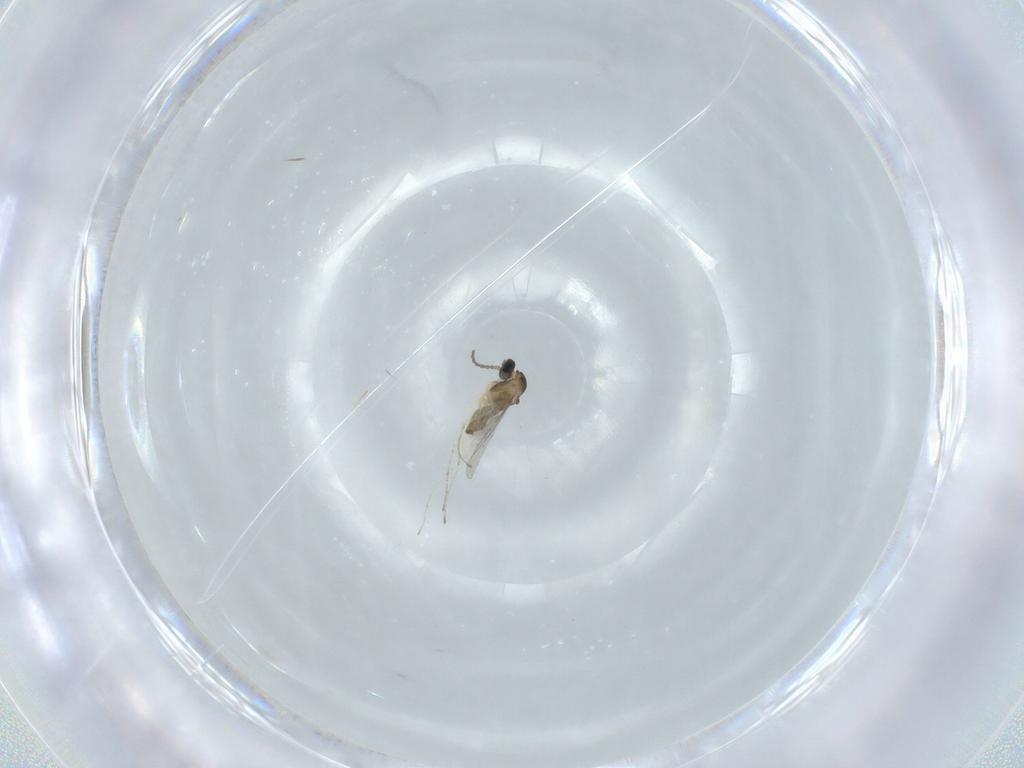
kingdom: Animalia
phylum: Arthropoda
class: Insecta
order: Diptera
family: Cecidomyiidae
